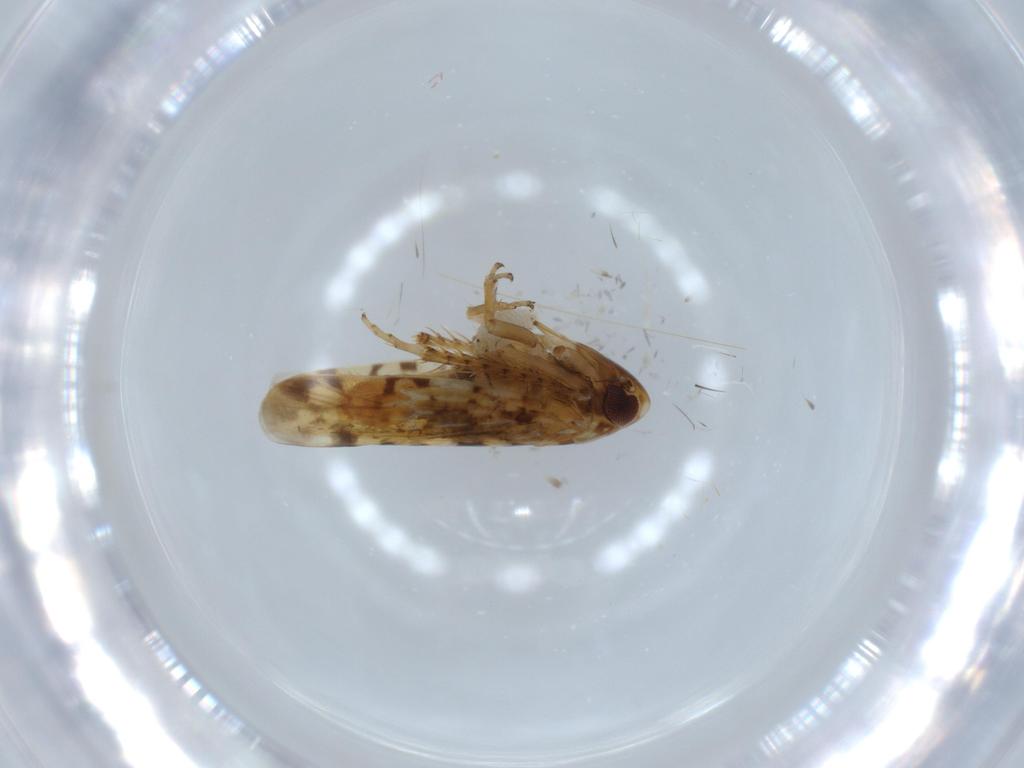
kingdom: Animalia
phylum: Arthropoda
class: Insecta
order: Hemiptera
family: Cicadellidae
